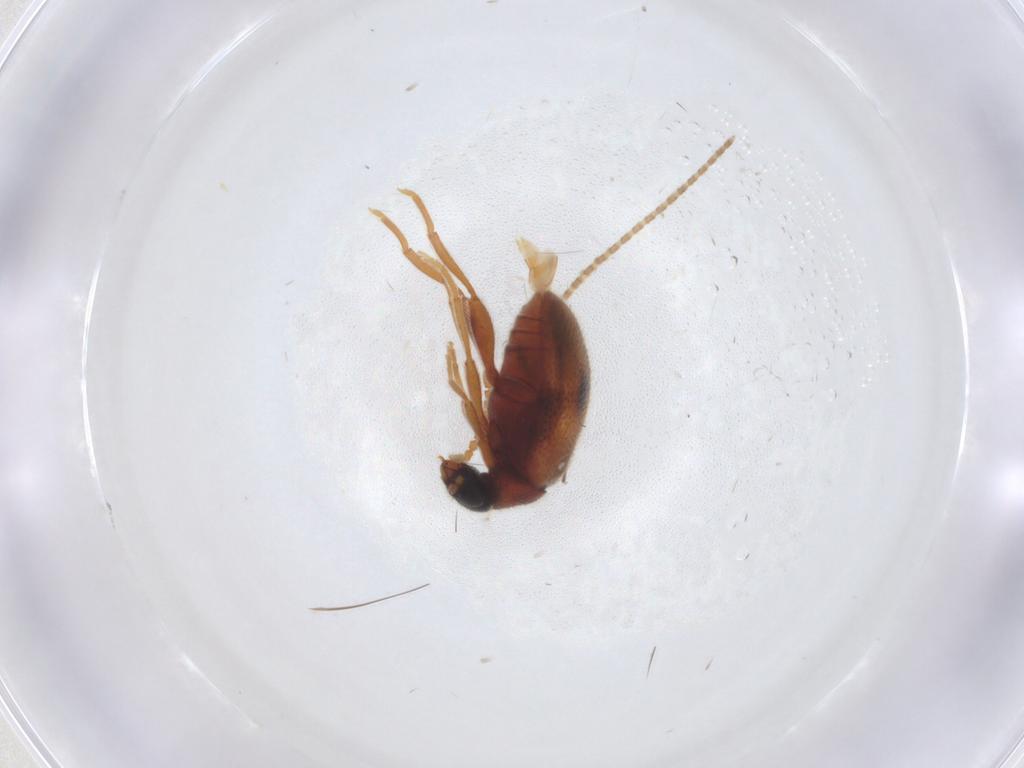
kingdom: Animalia
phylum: Arthropoda
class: Insecta
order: Coleoptera
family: Aderidae
